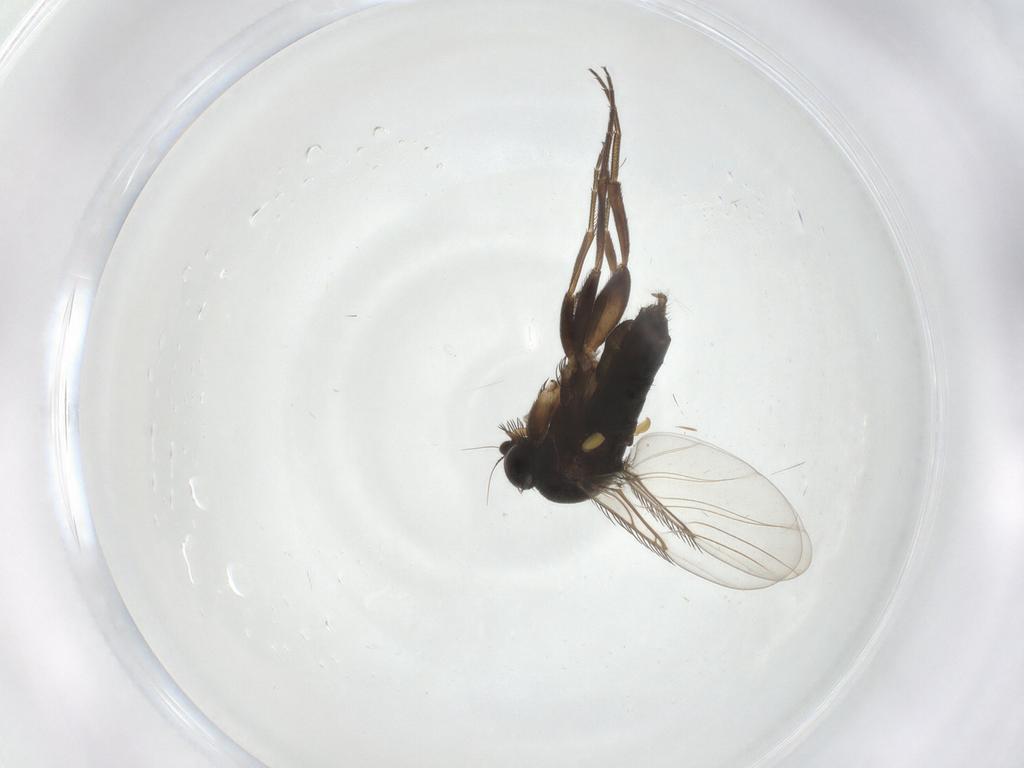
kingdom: Animalia
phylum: Arthropoda
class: Insecta
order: Diptera
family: Phoridae
